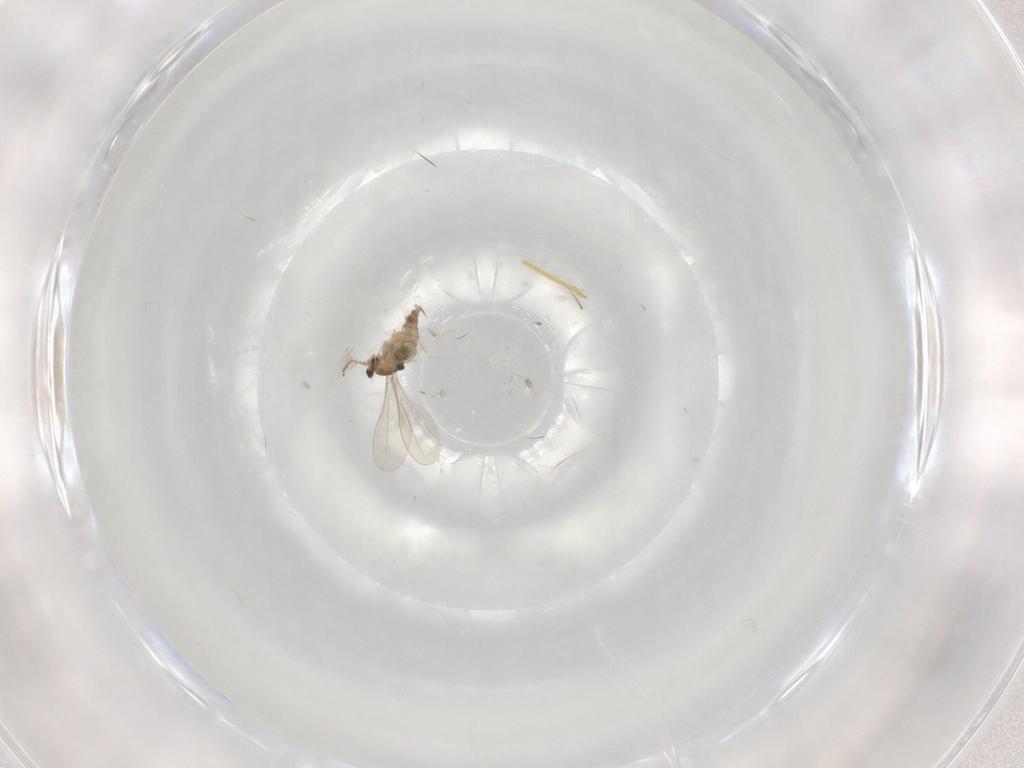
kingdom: Animalia
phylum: Arthropoda
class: Insecta
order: Diptera
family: Cecidomyiidae
